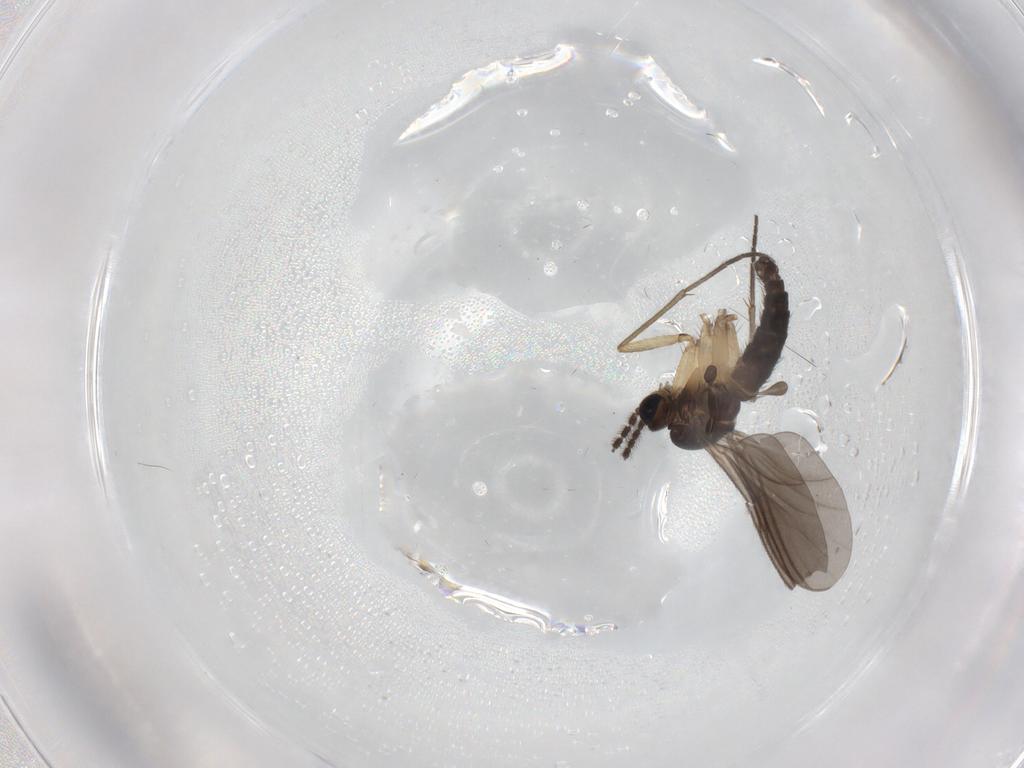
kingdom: Animalia
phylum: Arthropoda
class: Insecta
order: Diptera
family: Sciaridae
